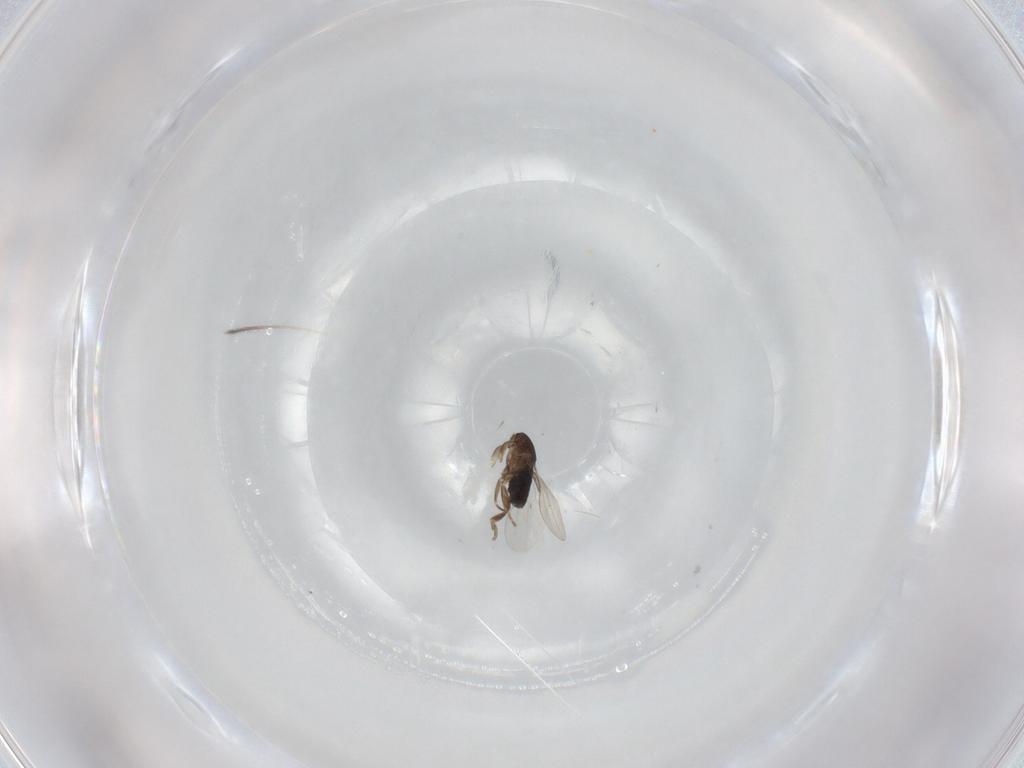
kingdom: Animalia
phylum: Arthropoda
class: Insecta
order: Diptera
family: Phoridae
